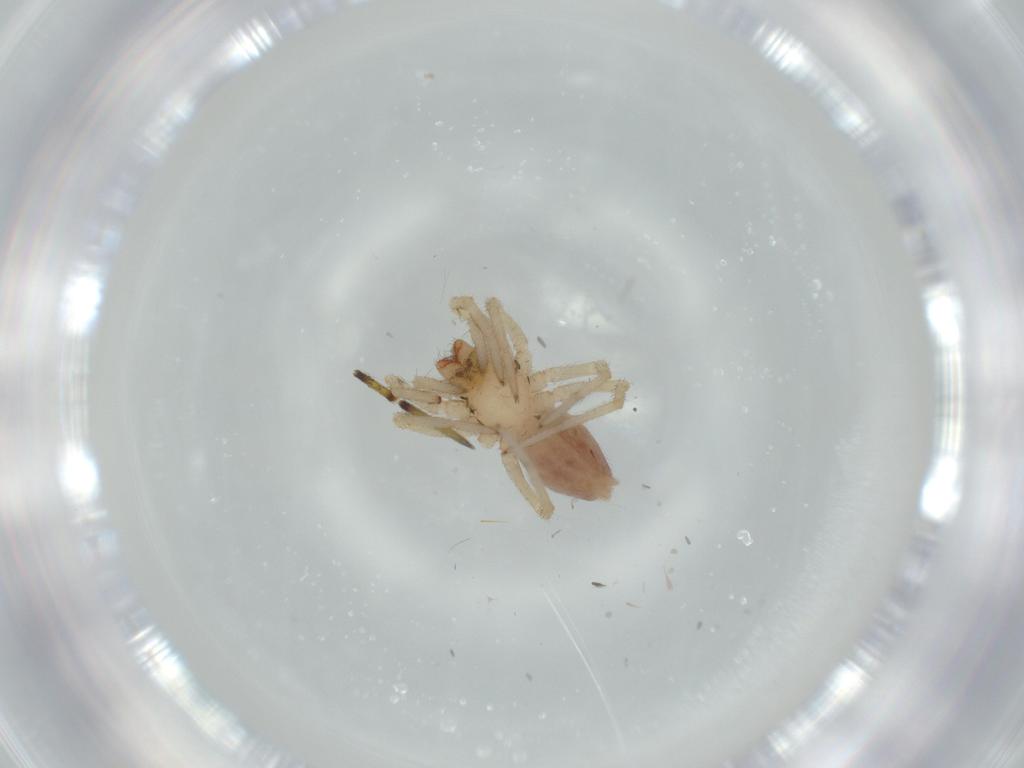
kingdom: Animalia
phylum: Arthropoda
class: Arachnida
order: Araneae
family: Corinnidae
